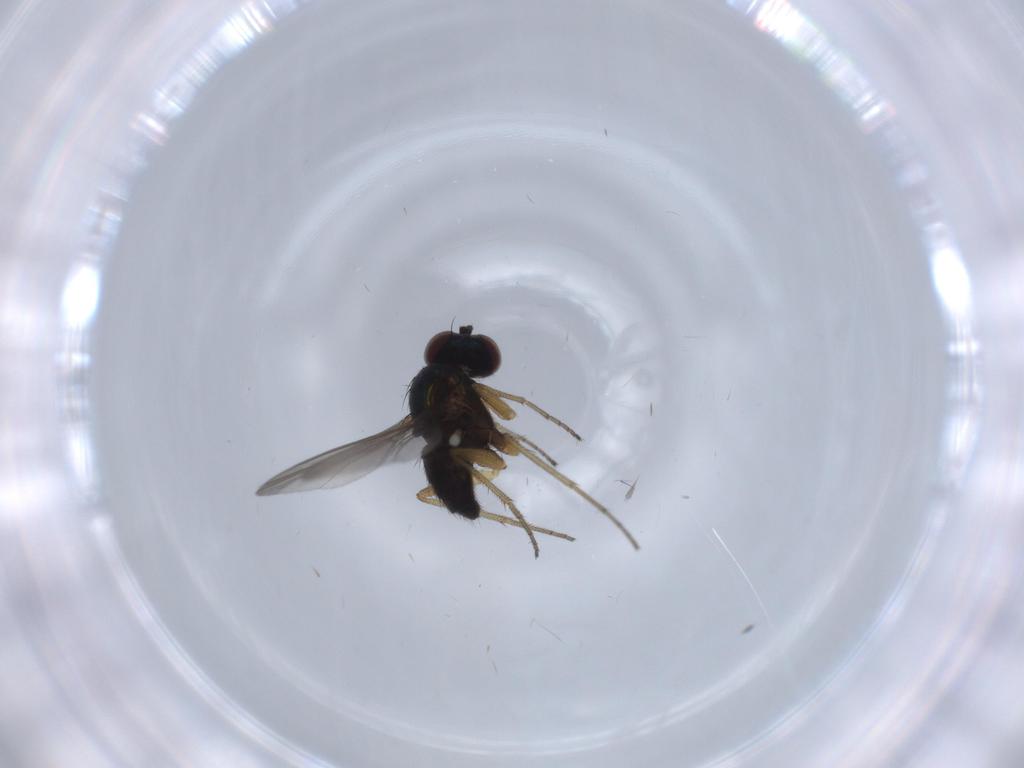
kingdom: Animalia
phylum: Arthropoda
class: Insecta
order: Diptera
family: Dolichopodidae
